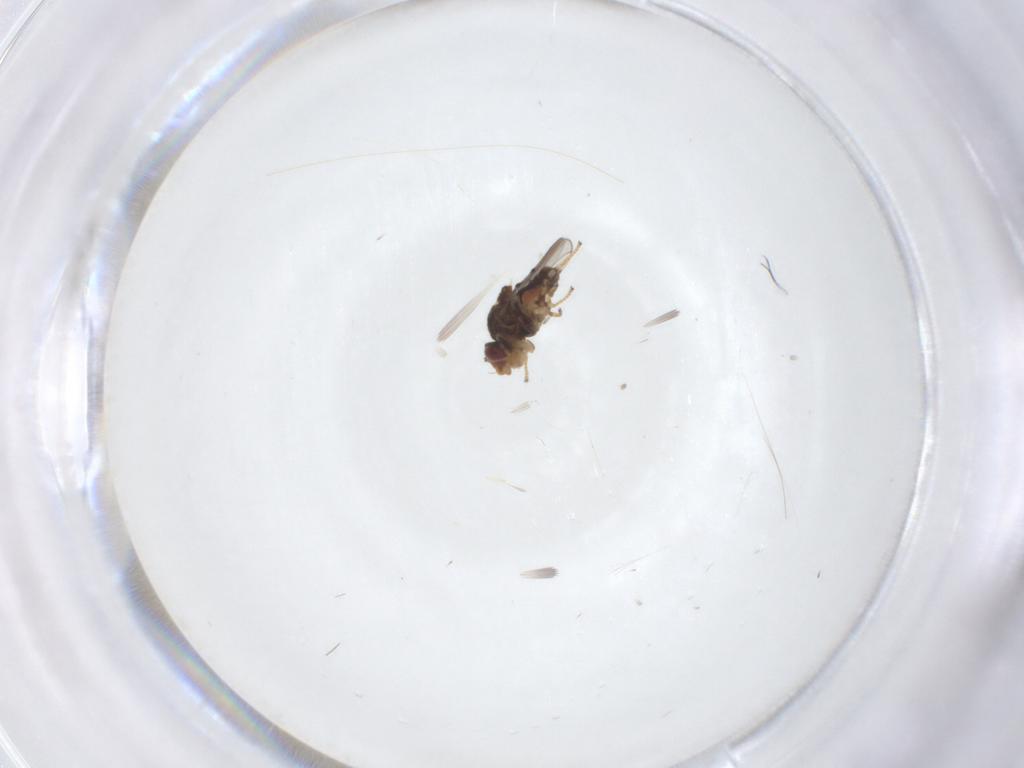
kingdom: Animalia
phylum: Arthropoda
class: Insecta
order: Diptera
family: Chloropidae
